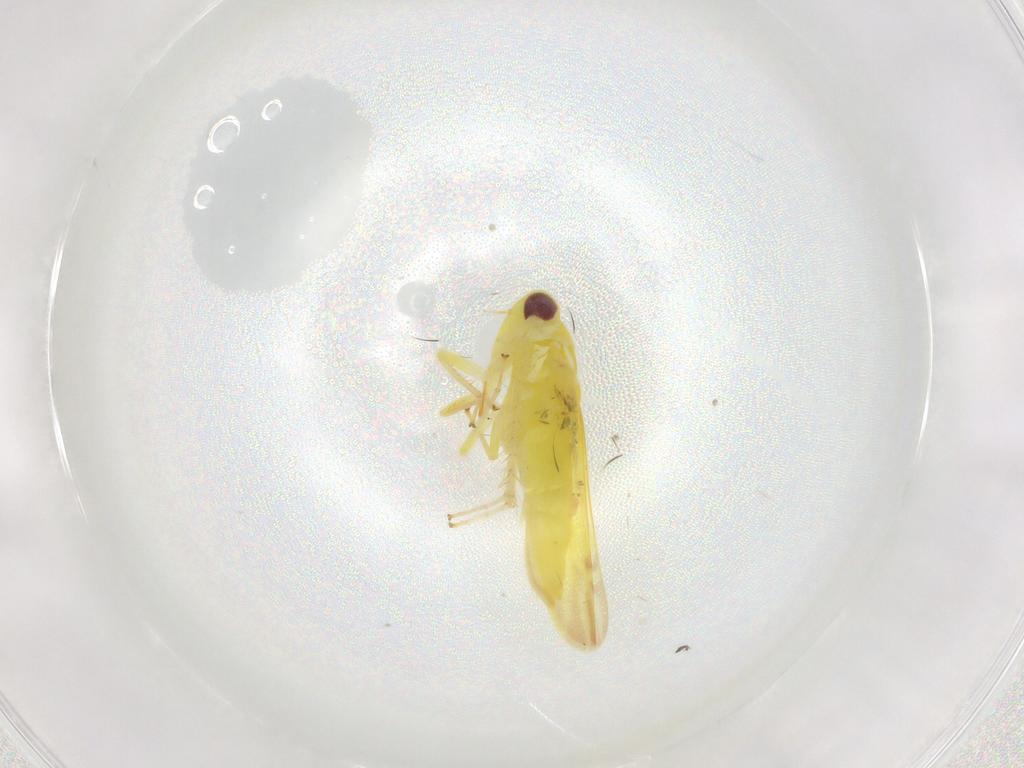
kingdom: Animalia
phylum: Arthropoda
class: Insecta
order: Hemiptera
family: Cicadellidae
